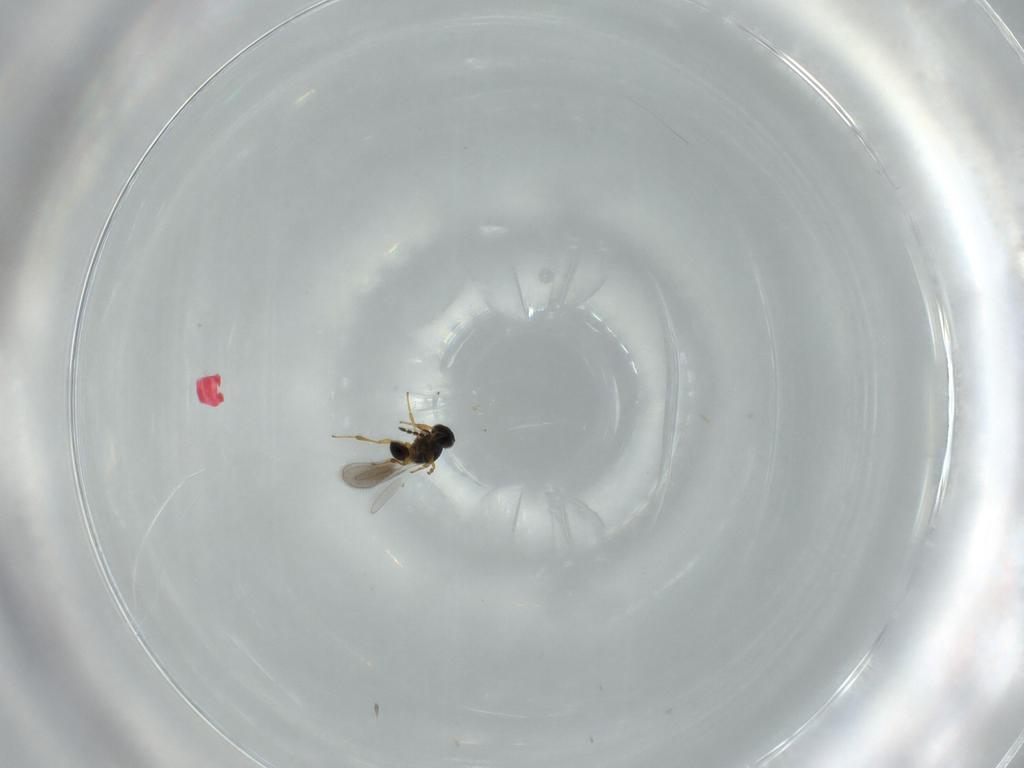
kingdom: Animalia
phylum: Arthropoda
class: Insecta
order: Hymenoptera
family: Platygastridae
